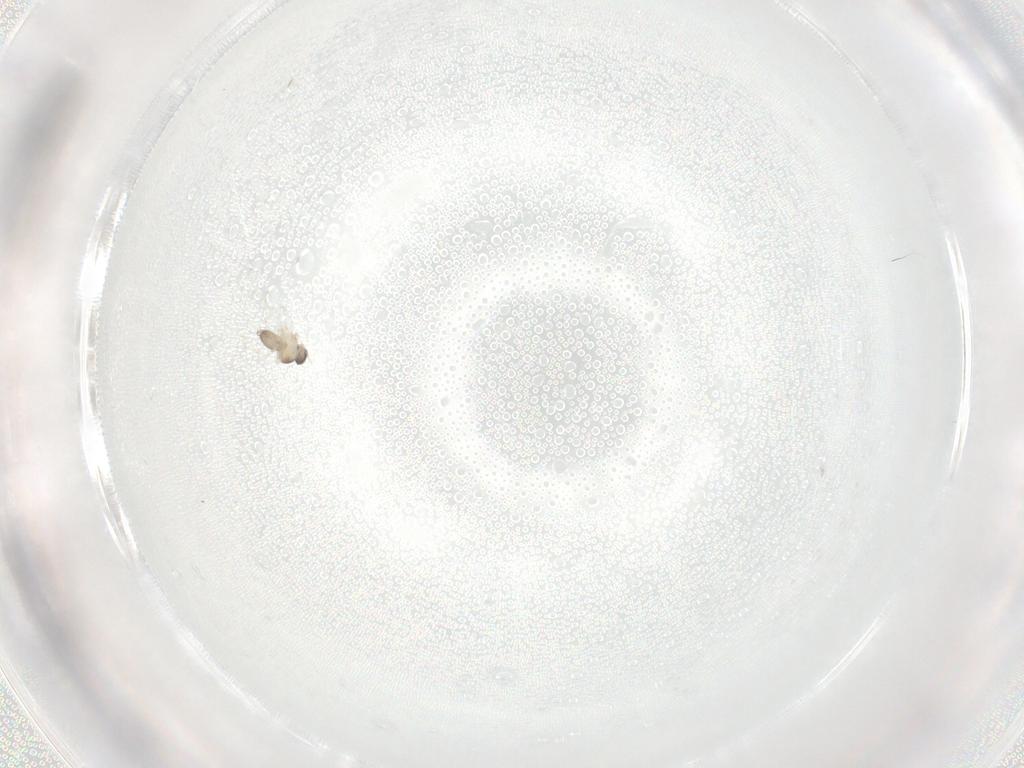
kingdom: Animalia
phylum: Arthropoda
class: Insecta
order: Diptera
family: Cecidomyiidae
